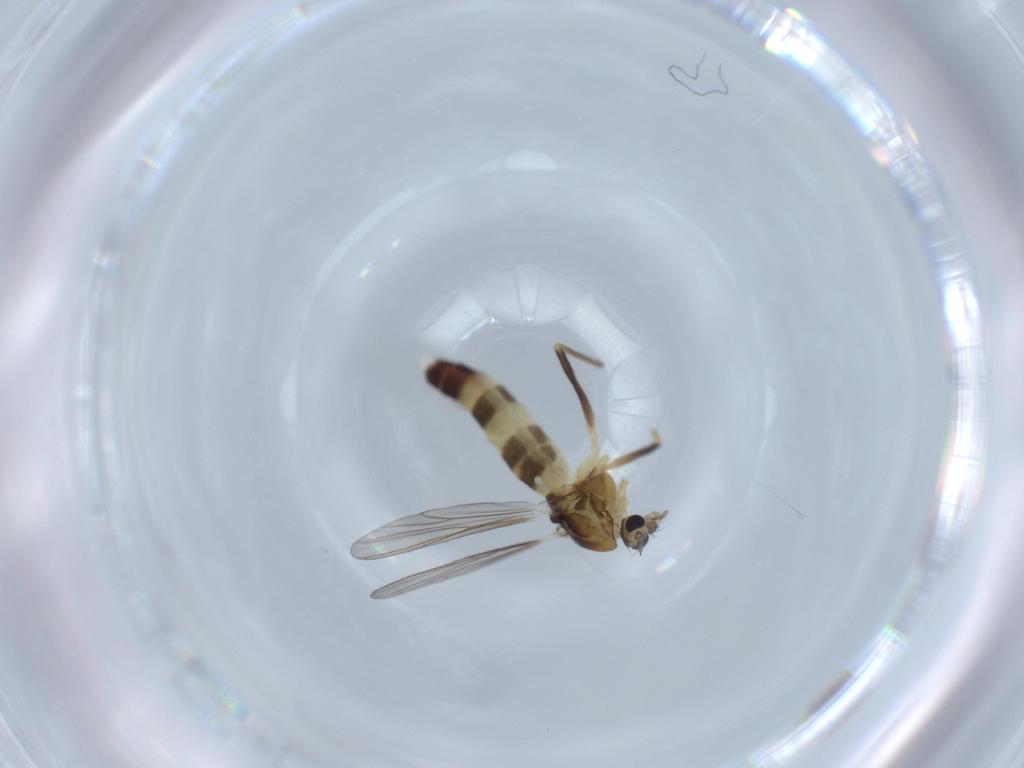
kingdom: Animalia
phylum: Arthropoda
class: Insecta
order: Diptera
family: Chironomidae
